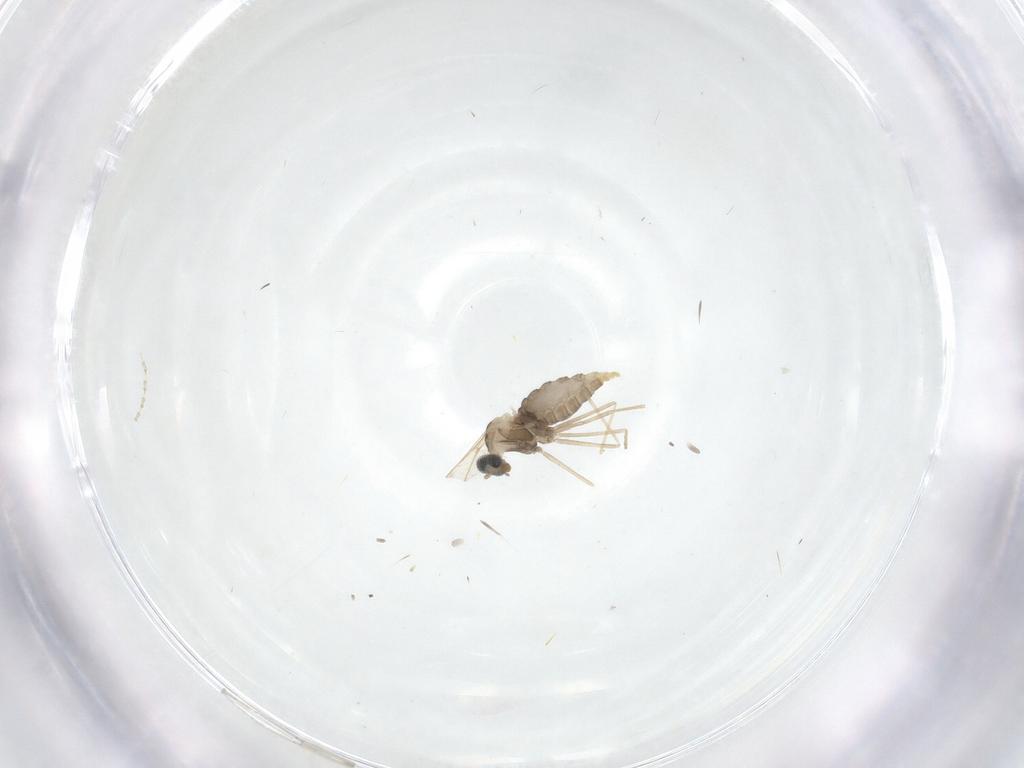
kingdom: Animalia
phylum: Arthropoda
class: Insecta
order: Diptera
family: Cecidomyiidae
